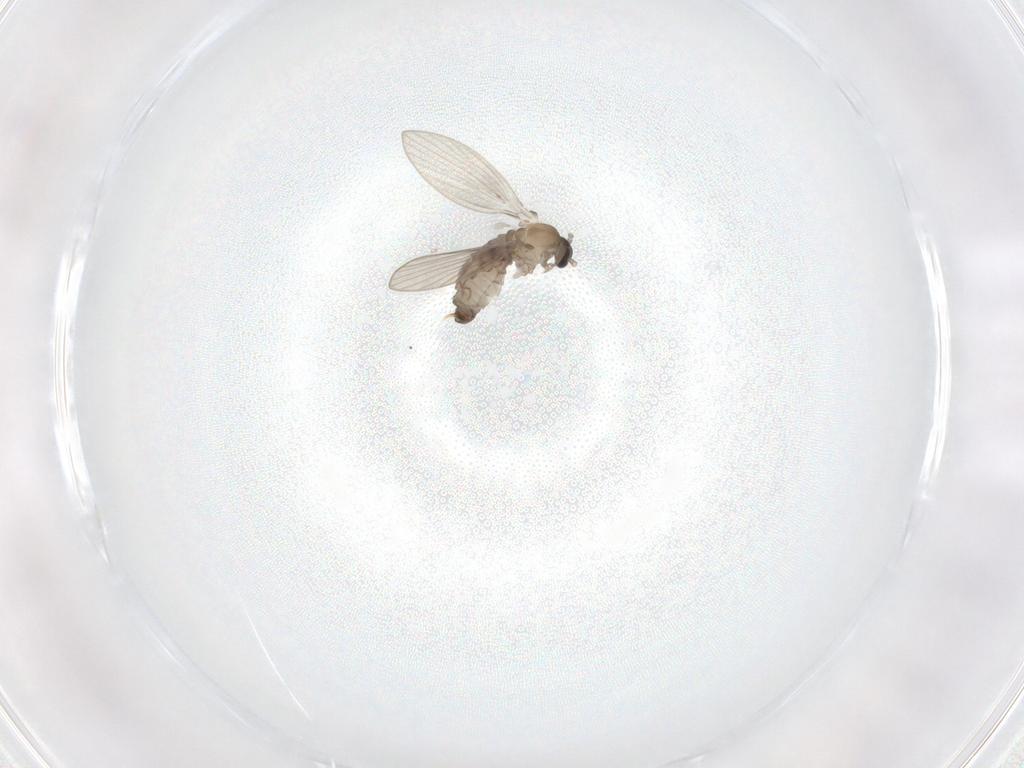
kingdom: Animalia
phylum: Arthropoda
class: Insecta
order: Diptera
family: Psychodidae
